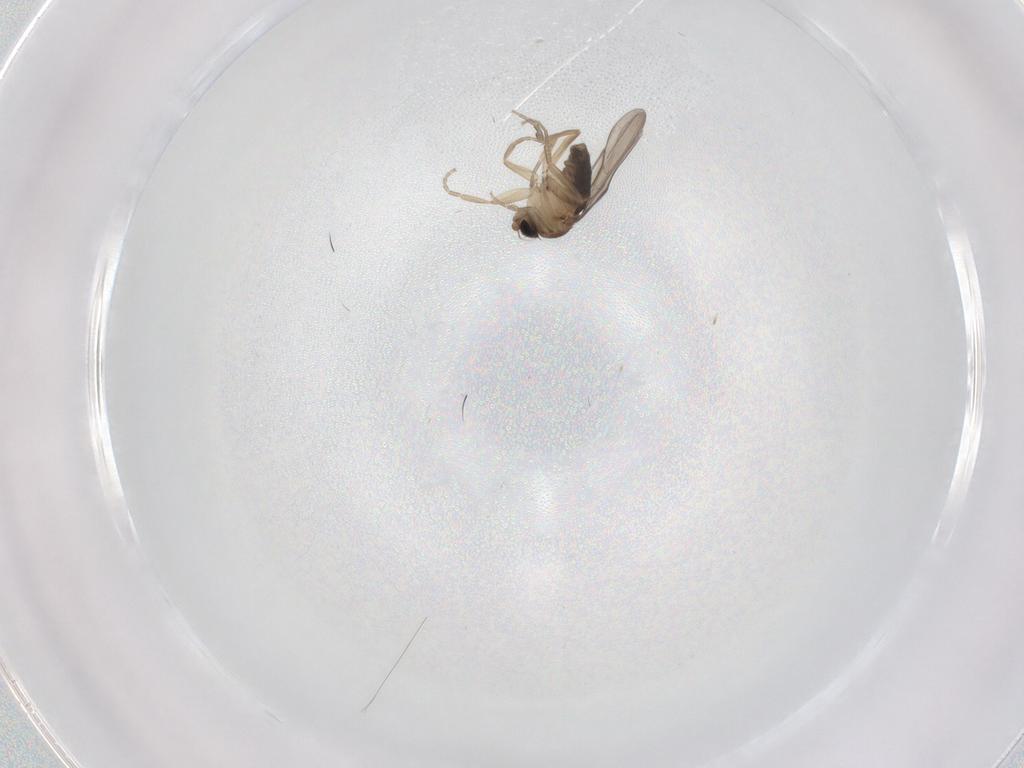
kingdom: Animalia
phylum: Arthropoda
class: Insecta
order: Diptera
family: Phoridae
